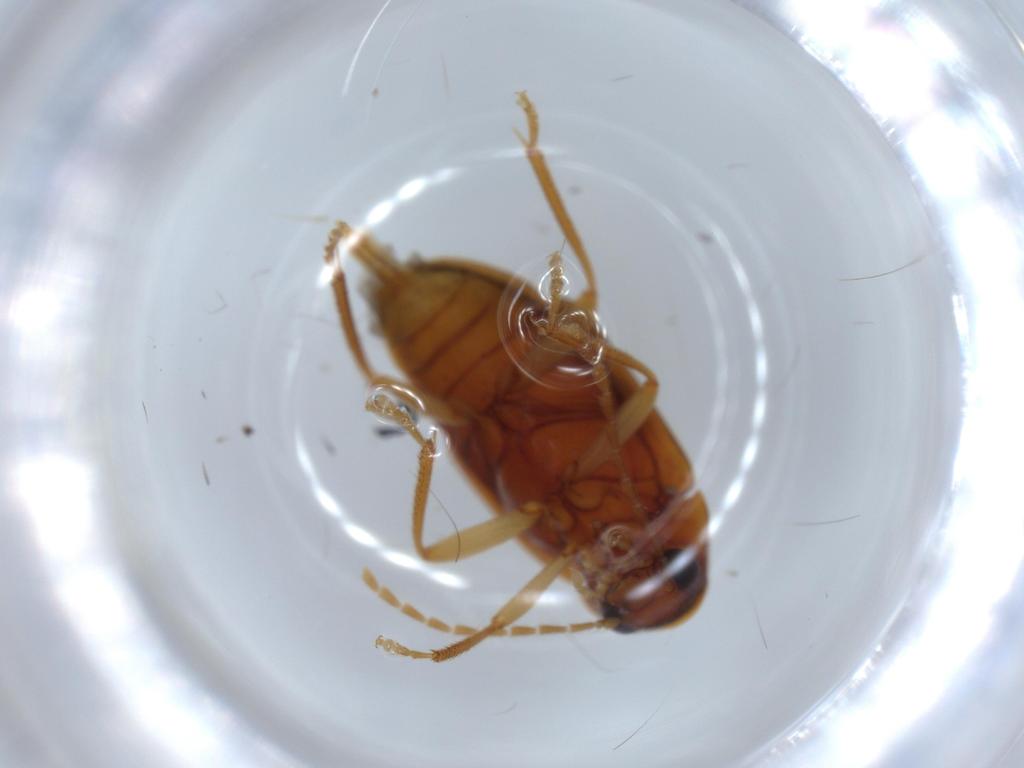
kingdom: Animalia
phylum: Arthropoda
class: Insecta
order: Coleoptera
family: Ptilodactylidae
